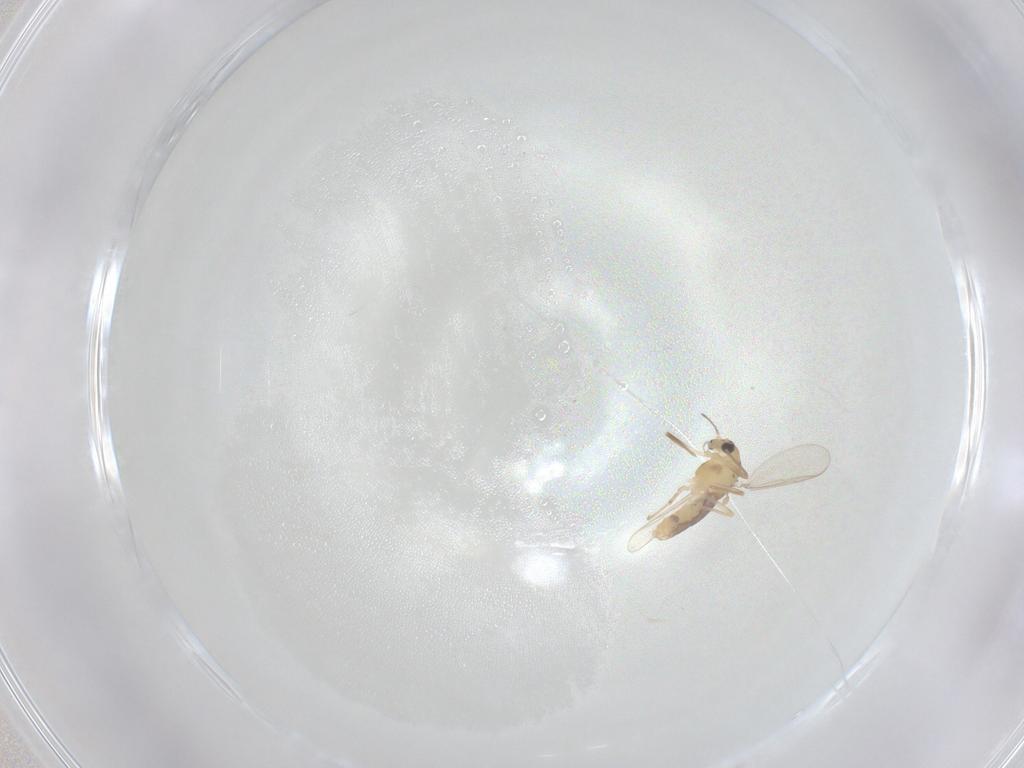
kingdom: Animalia
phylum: Arthropoda
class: Insecta
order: Diptera
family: Chironomidae
